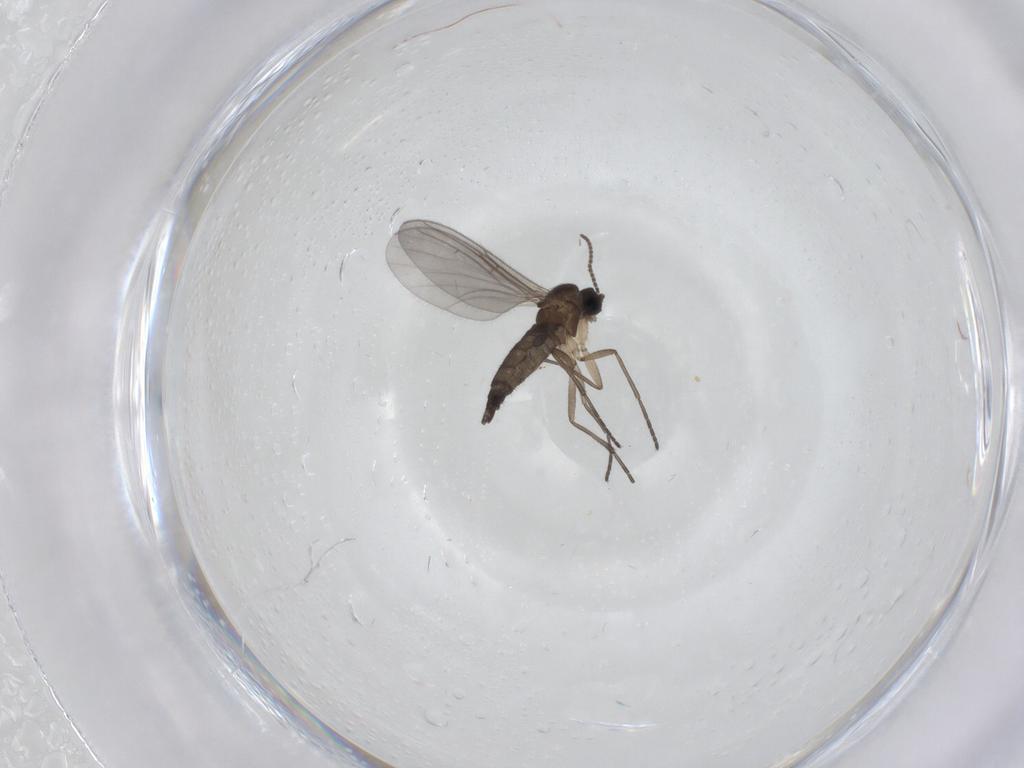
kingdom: Animalia
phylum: Arthropoda
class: Insecta
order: Diptera
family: Sciaridae
